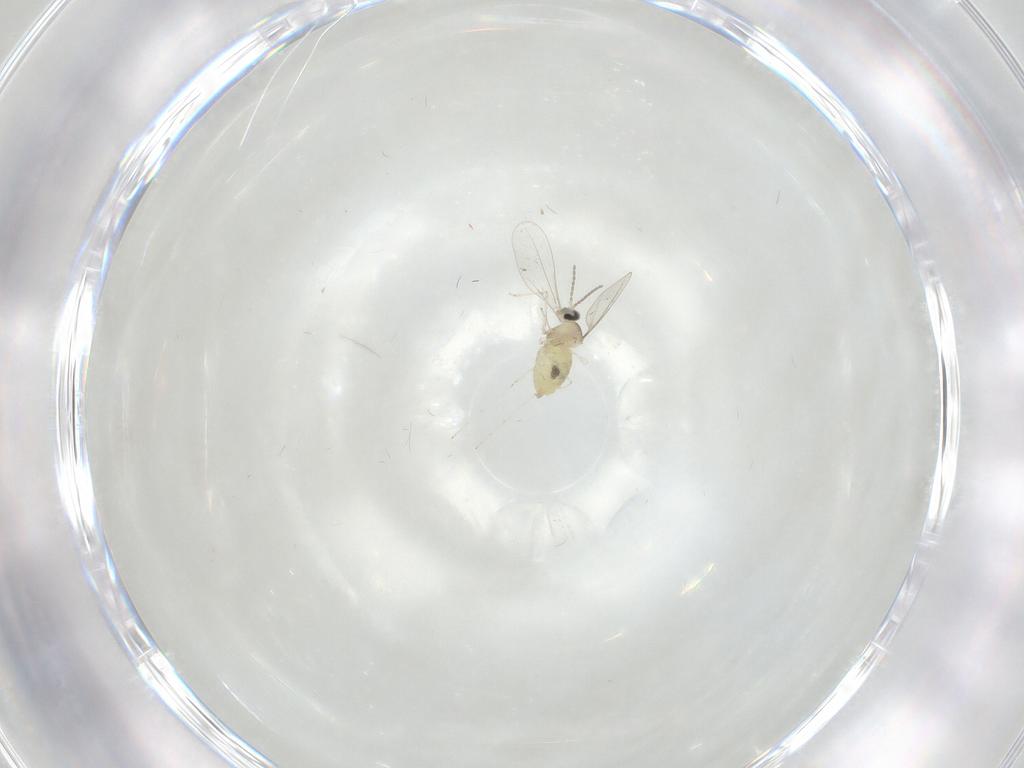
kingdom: Animalia
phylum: Arthropoda
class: Insecta
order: Diptera
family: Cecidomyiidae
